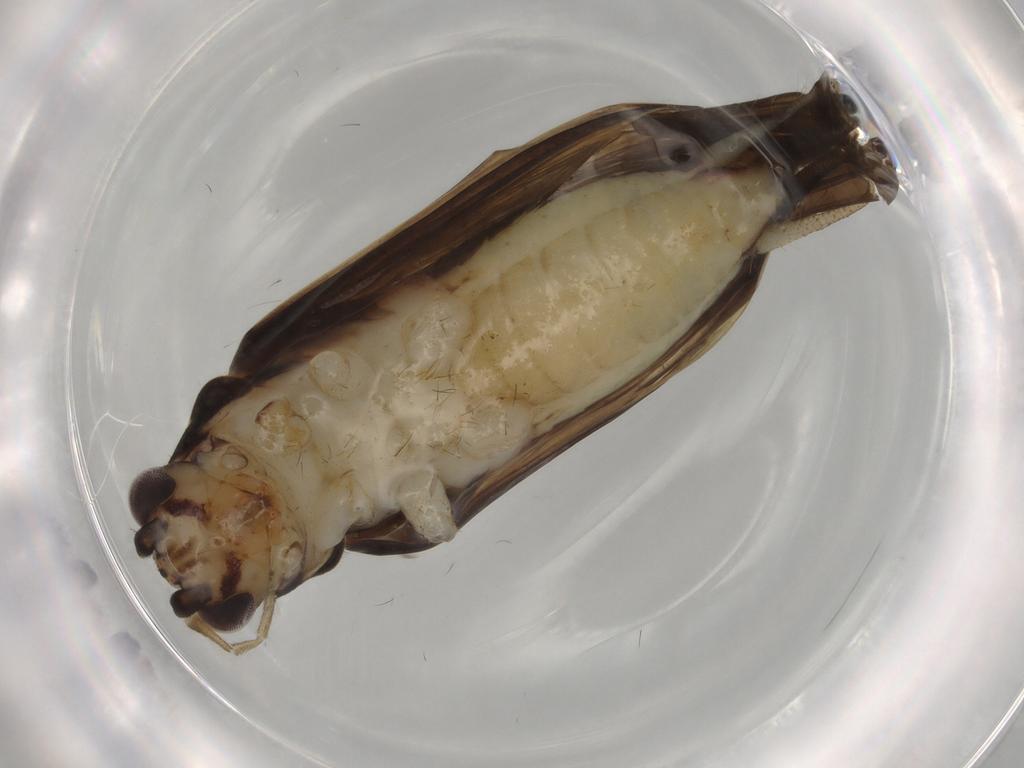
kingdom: Animalia
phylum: Arthropoda
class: Insecta
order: Orthoptera
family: Trigonidiidae
